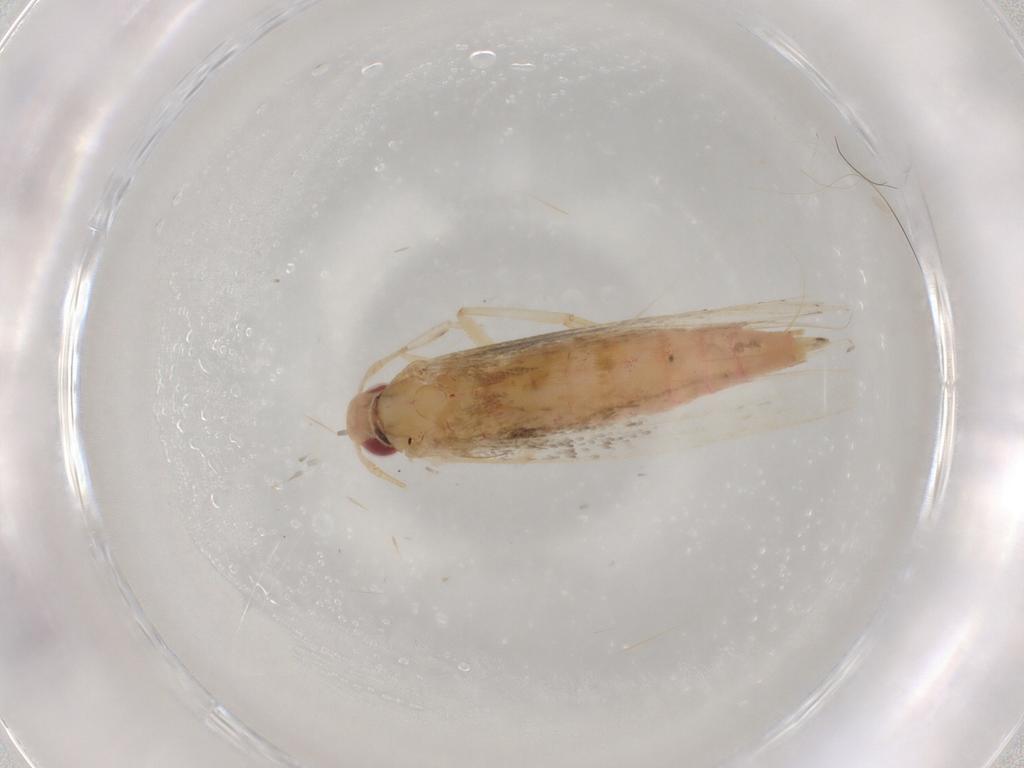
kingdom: Animalia
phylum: Arthropoda
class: Insecta
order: Lepidoptera
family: Cosmopterigidae
